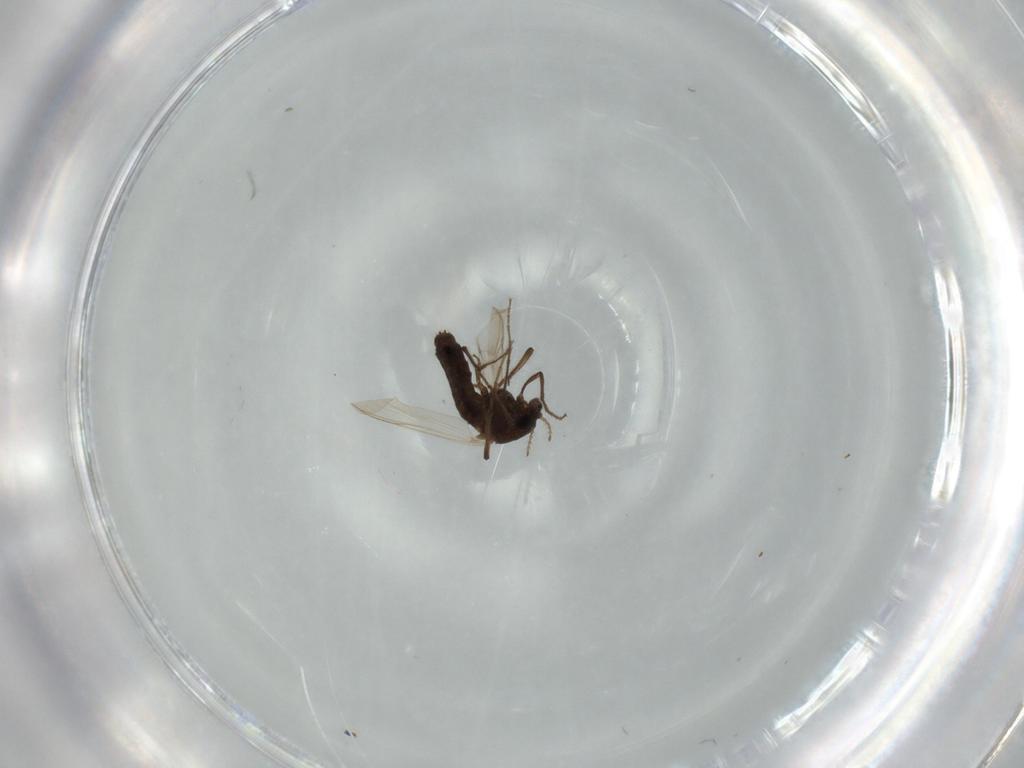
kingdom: Animalia
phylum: Arthropoda
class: Insecta
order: Diptera
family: Chironomidae
